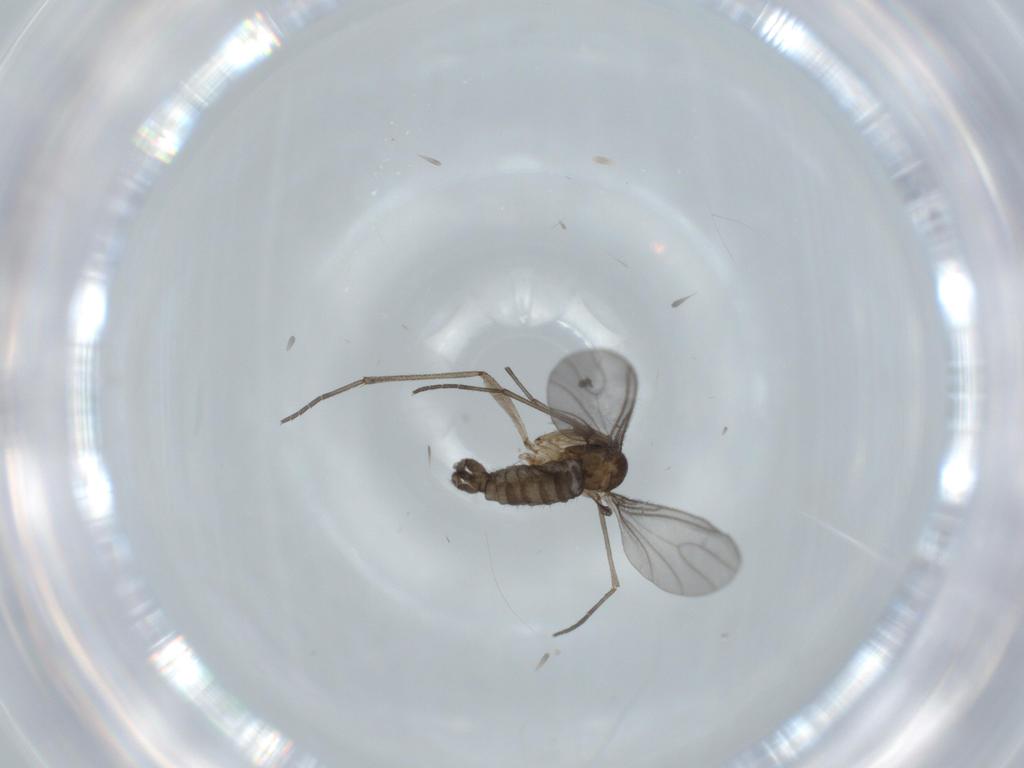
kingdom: Animalia
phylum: Arthropoda
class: Insecta
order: Diptera
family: Sciaridae
